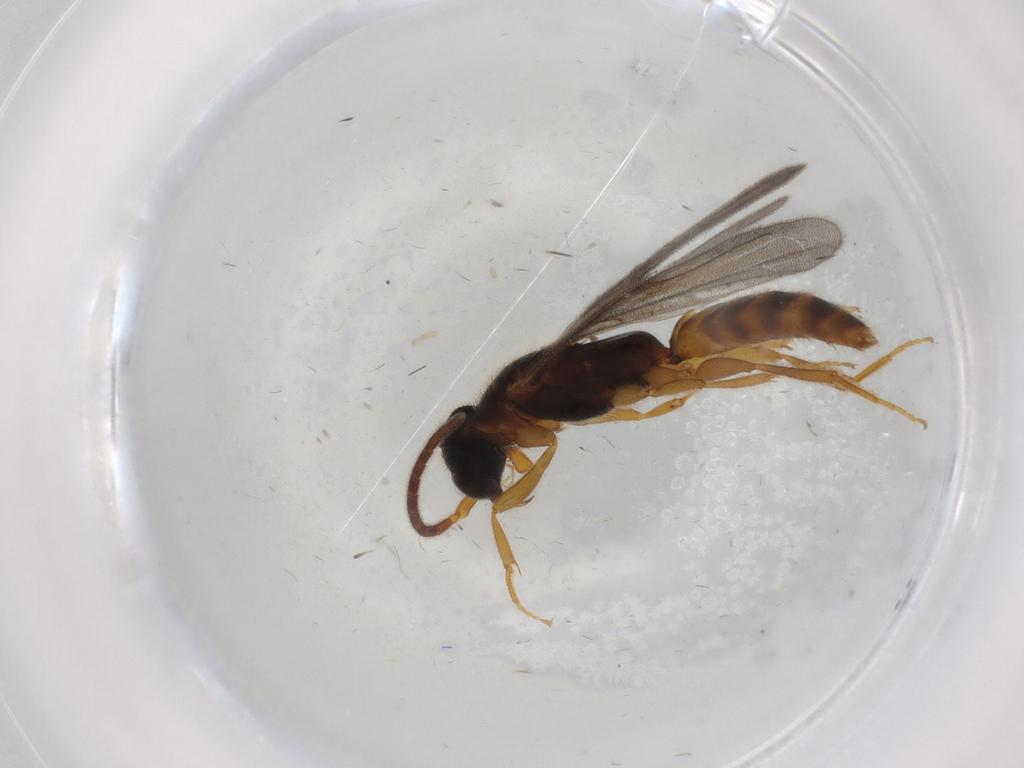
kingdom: Animalia
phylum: Arthropoda
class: Insecta
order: Hymenoptera
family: Bethylidae
